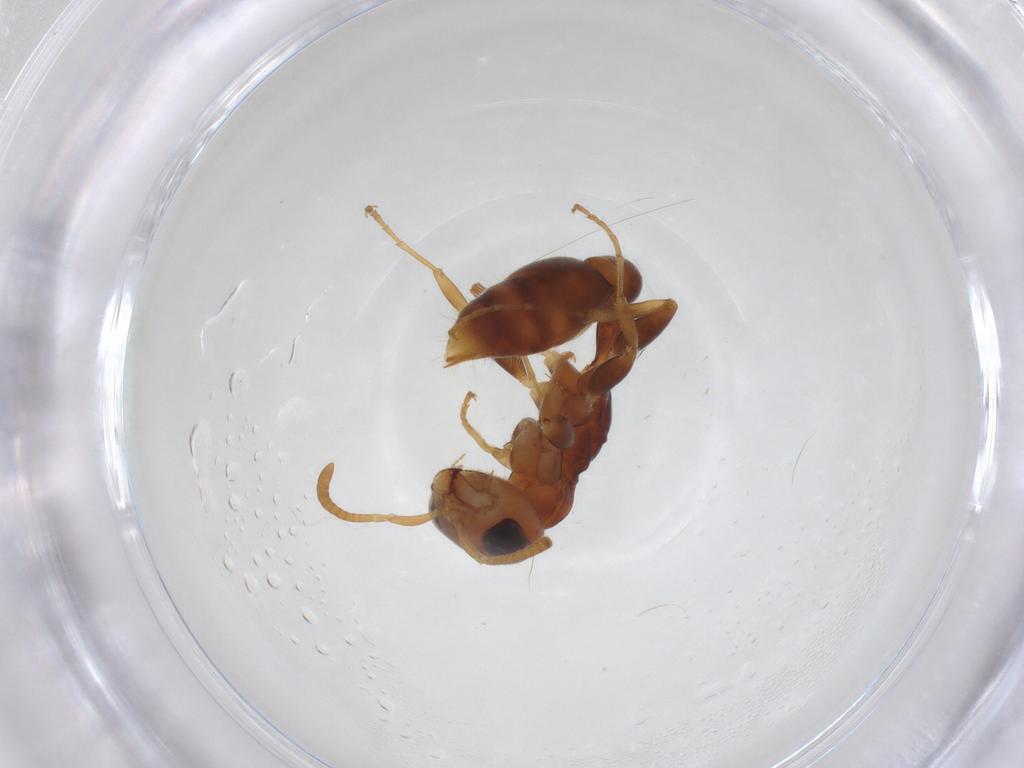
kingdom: Animalia
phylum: Arthropoda
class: Insecta
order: Hymenoptera
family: Formicidae
